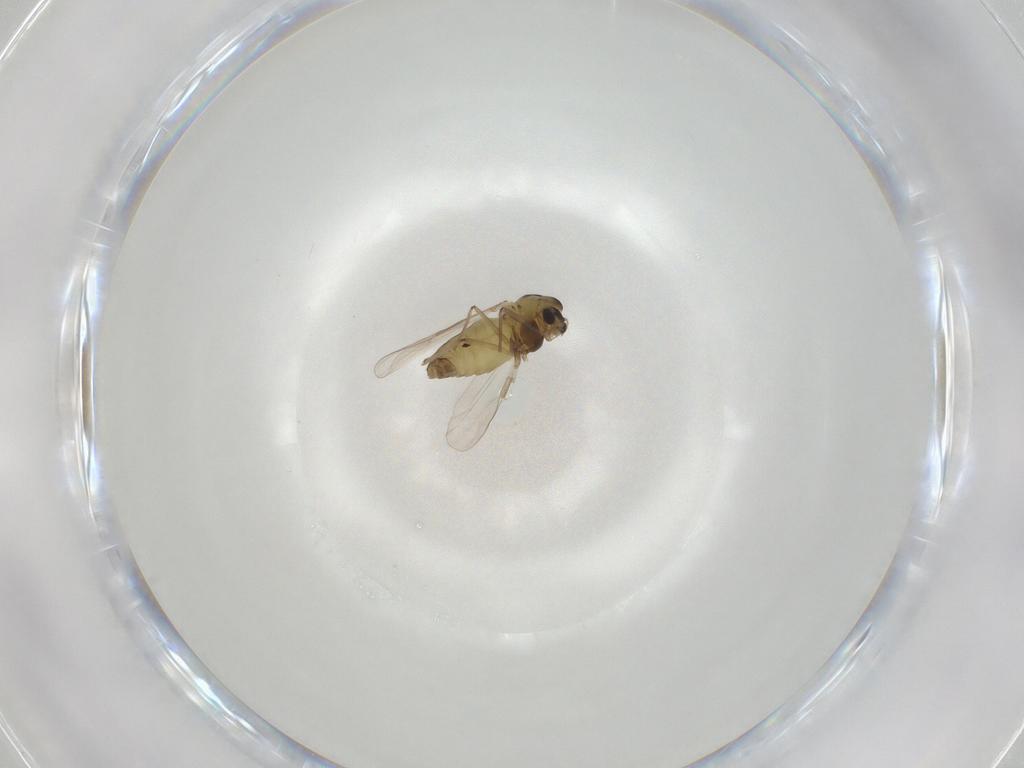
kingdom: Animalia
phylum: Arthropoda
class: Insecta
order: Diptera
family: Chironomidae
